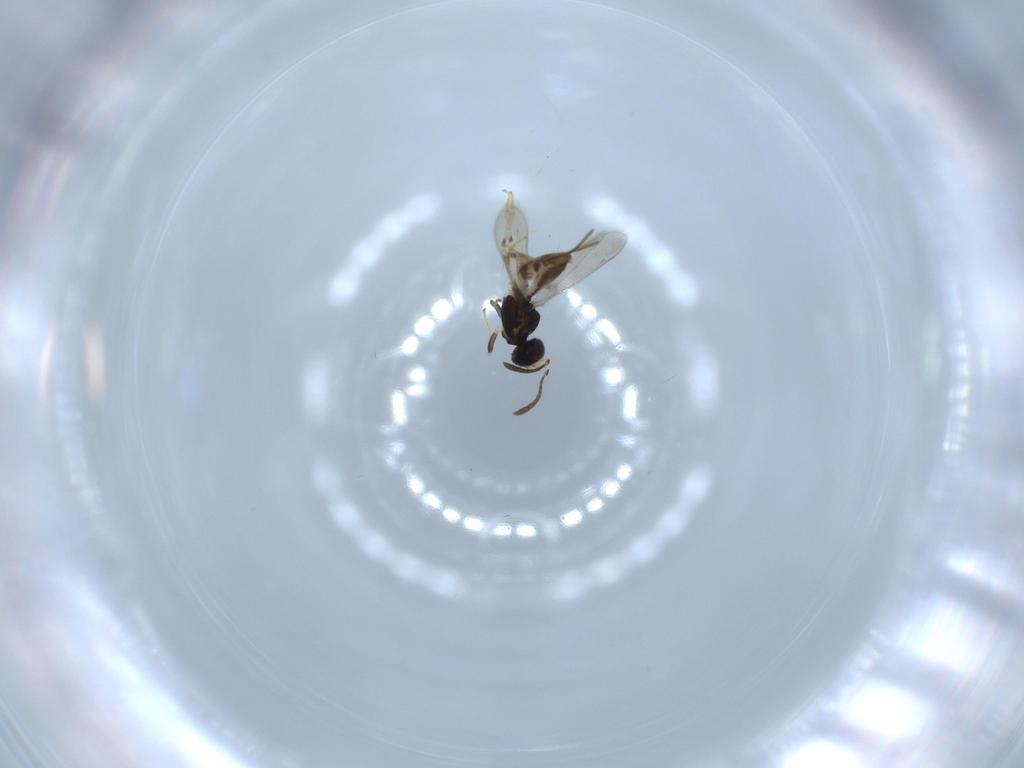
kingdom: Animalia
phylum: Arthropoda
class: Insecta
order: Hymenoptera
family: Eupelmidae
